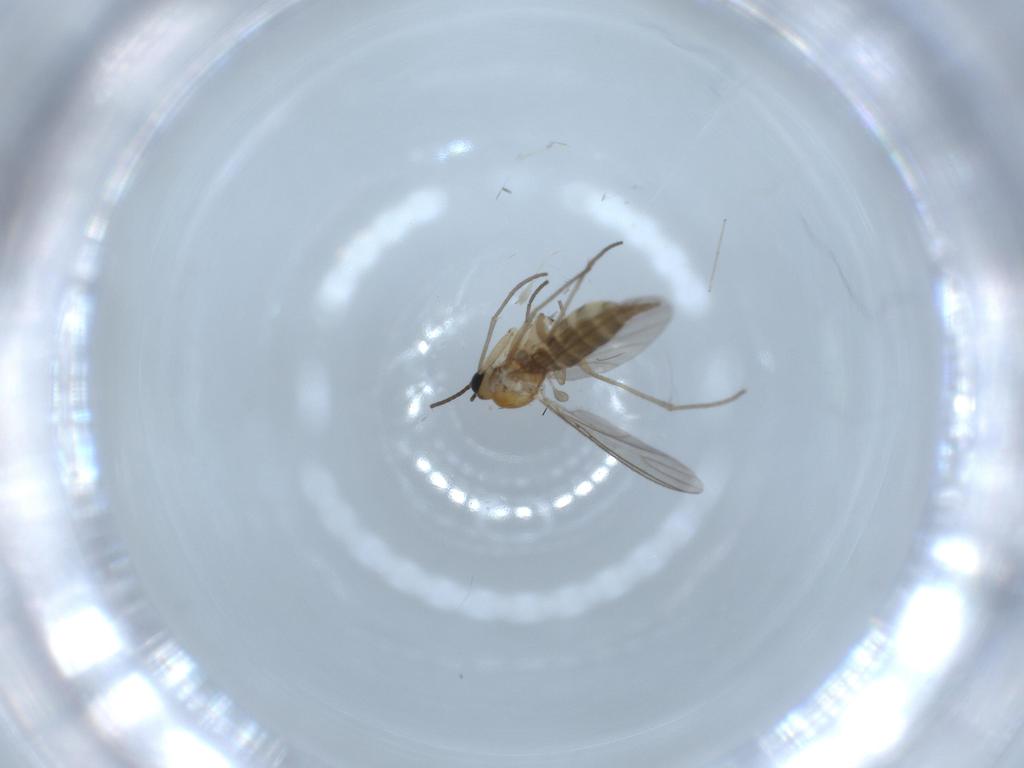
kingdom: Animalia
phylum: Arthropoda
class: Insecta
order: Diptera
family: Sciaridae
